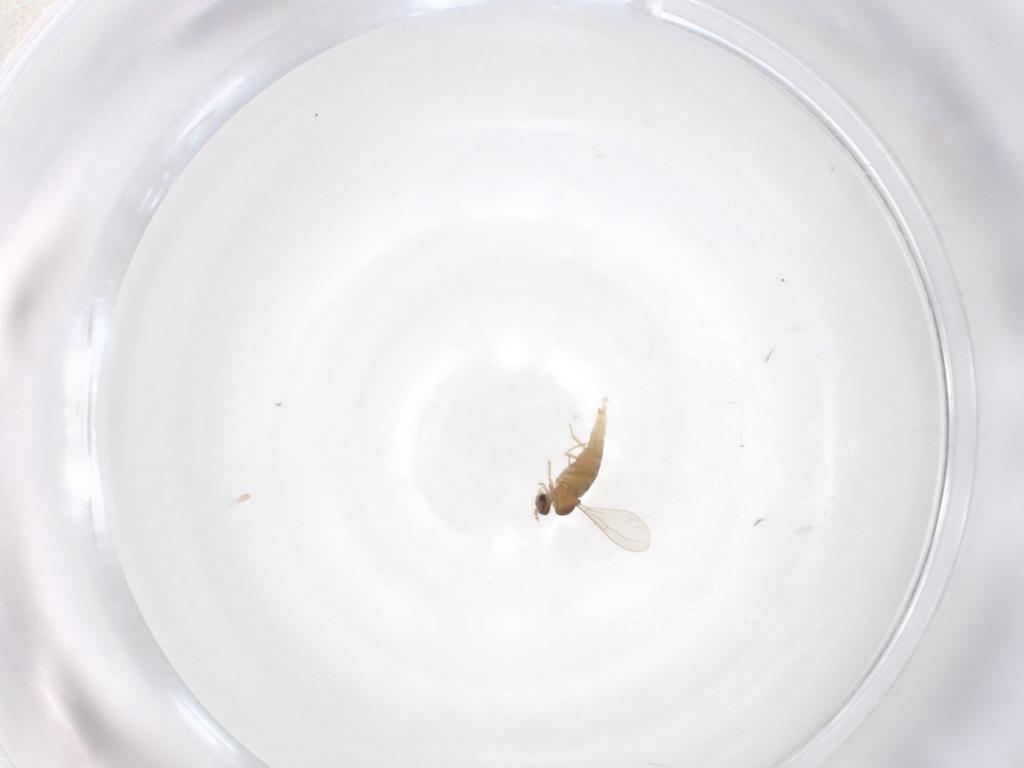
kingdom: Animalia
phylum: Arthropoda
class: Insecta
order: Diptera
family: Cecidomyiidae
